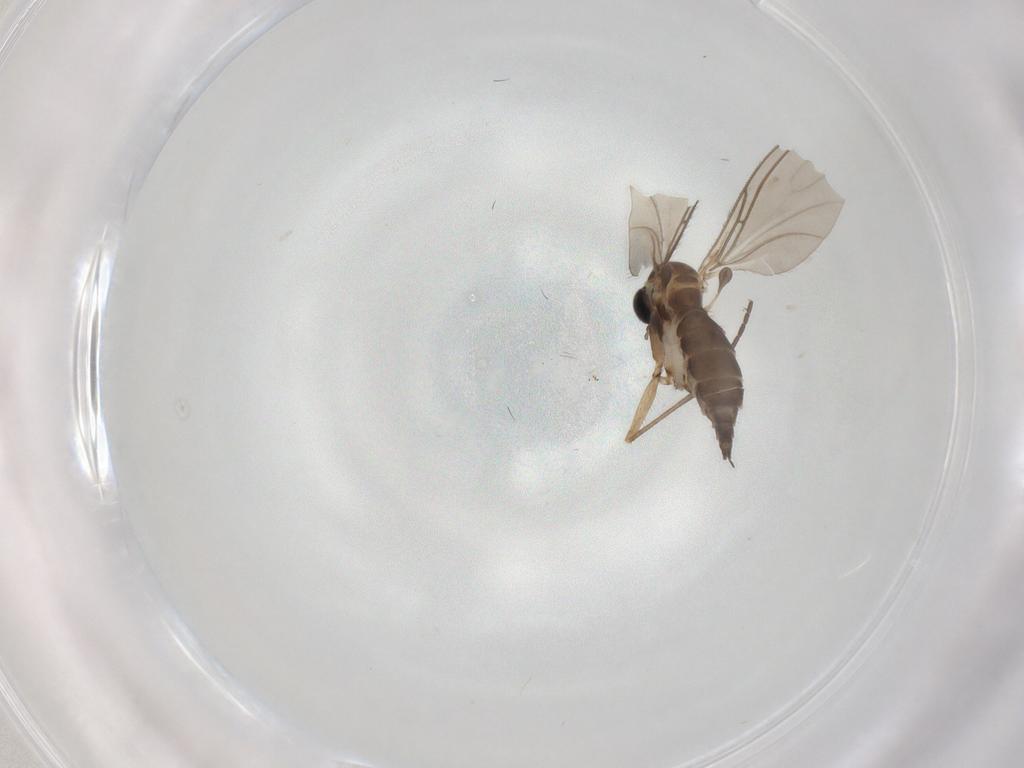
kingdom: Animalia
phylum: Arthropoda
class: Insecta
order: Diptera
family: Sciaridae
